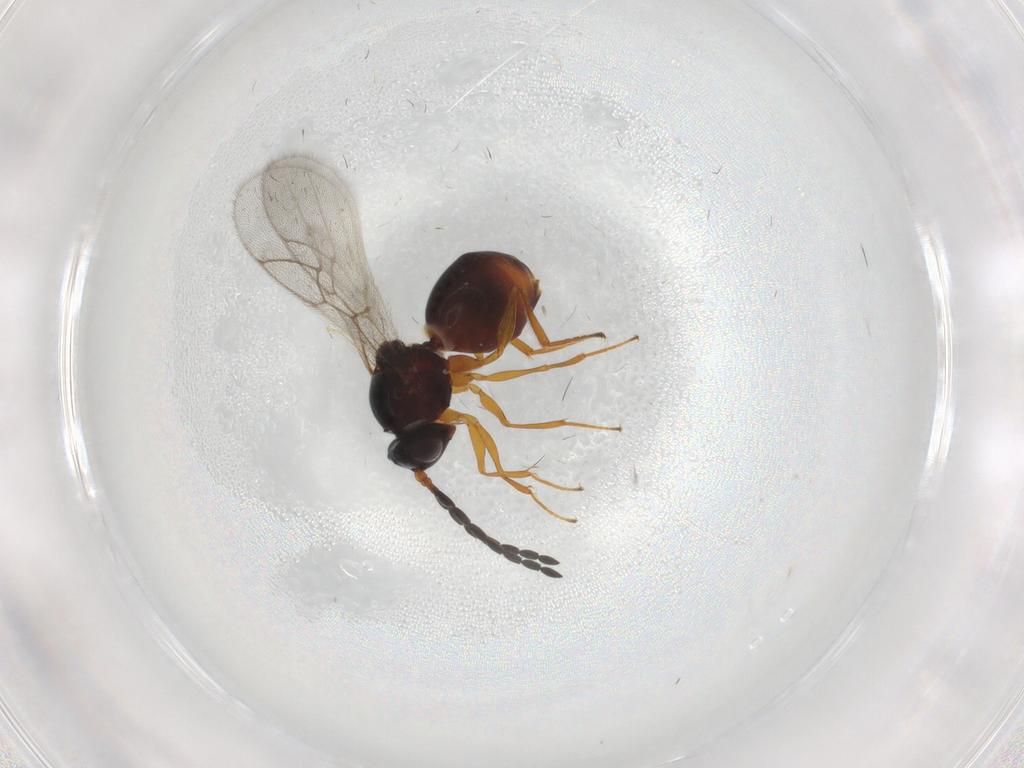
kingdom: Animalia
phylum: Arthropoda
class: Insecta
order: Hymenoptera
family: Figitidae
